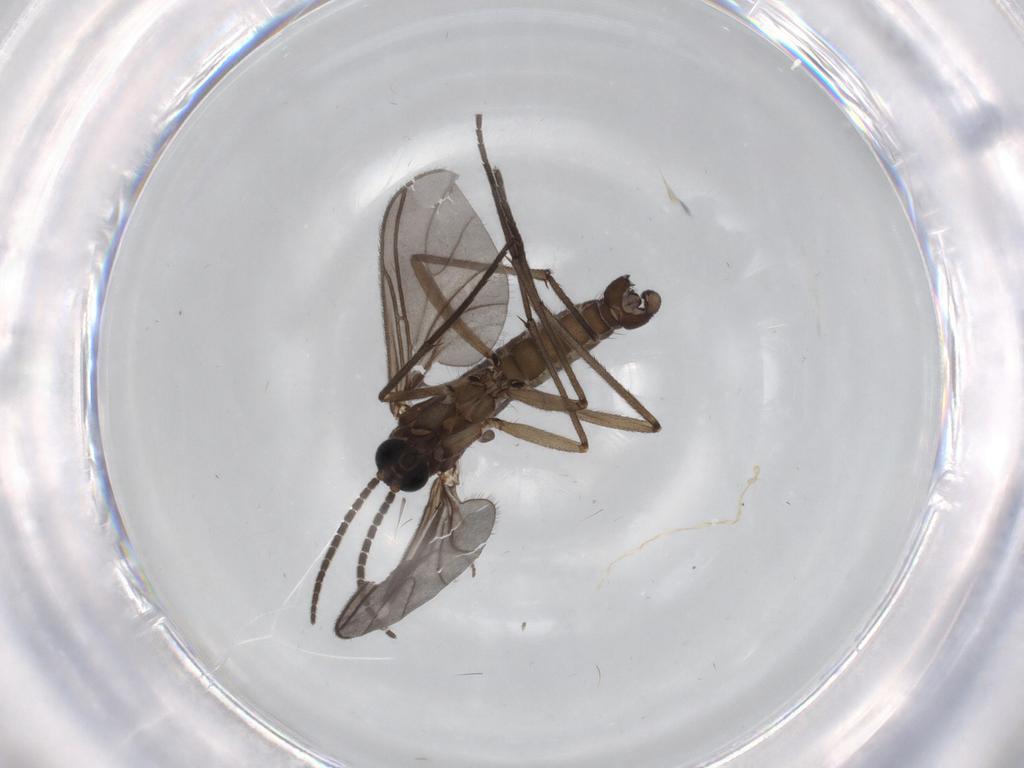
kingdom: Animalia
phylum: Arthropoda
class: Insecta
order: Diptera
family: Sciaridae
